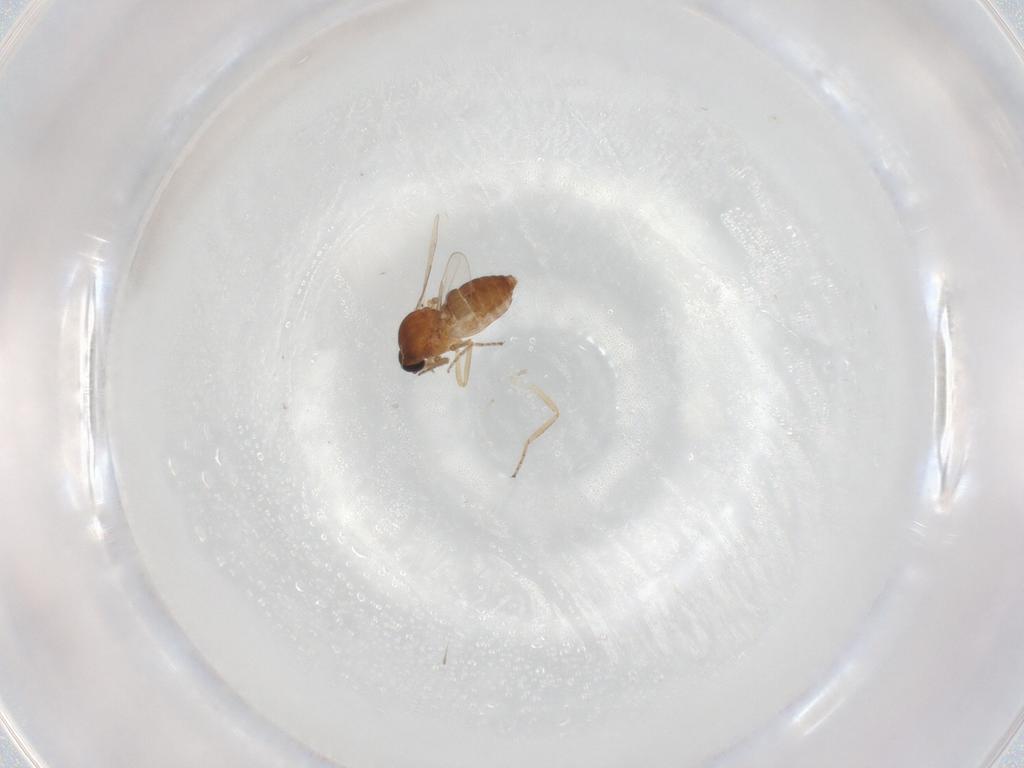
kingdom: Animalia
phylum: Arthropoda
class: Insecta
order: Diptera
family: Ceratopogonidae
